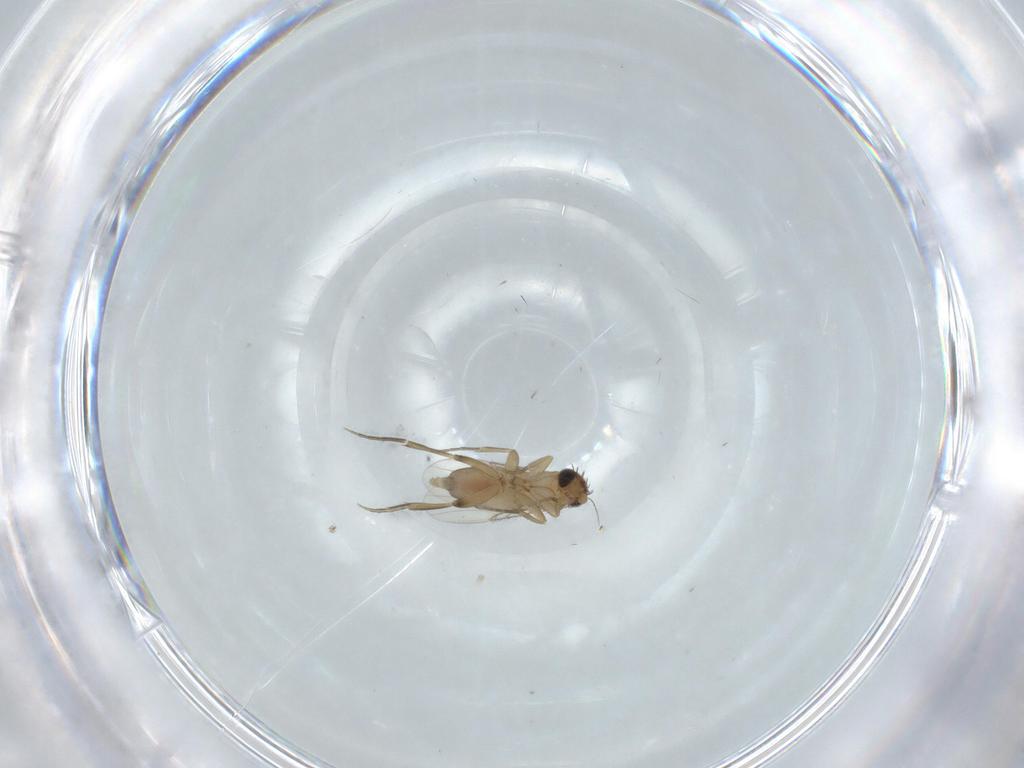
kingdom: Animalia
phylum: Arthropoda
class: Insecta
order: Diptera
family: Cecidomyiidae
